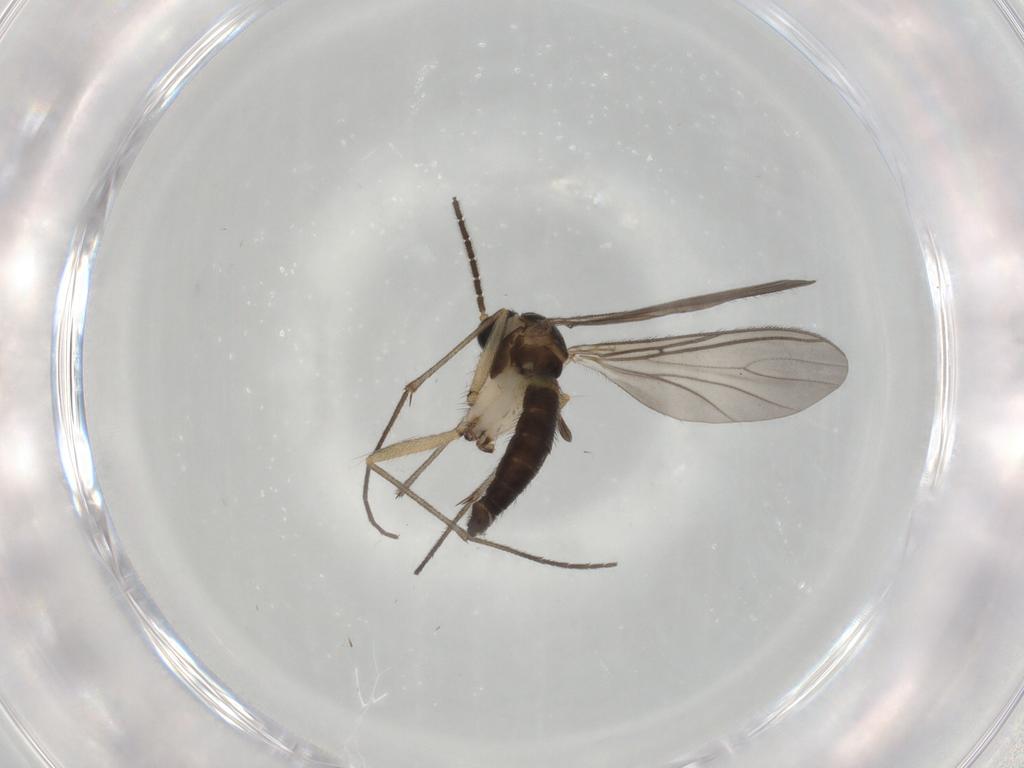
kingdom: Animalia
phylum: Arthropoda
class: Insecta
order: Diptera
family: Sciaridae
